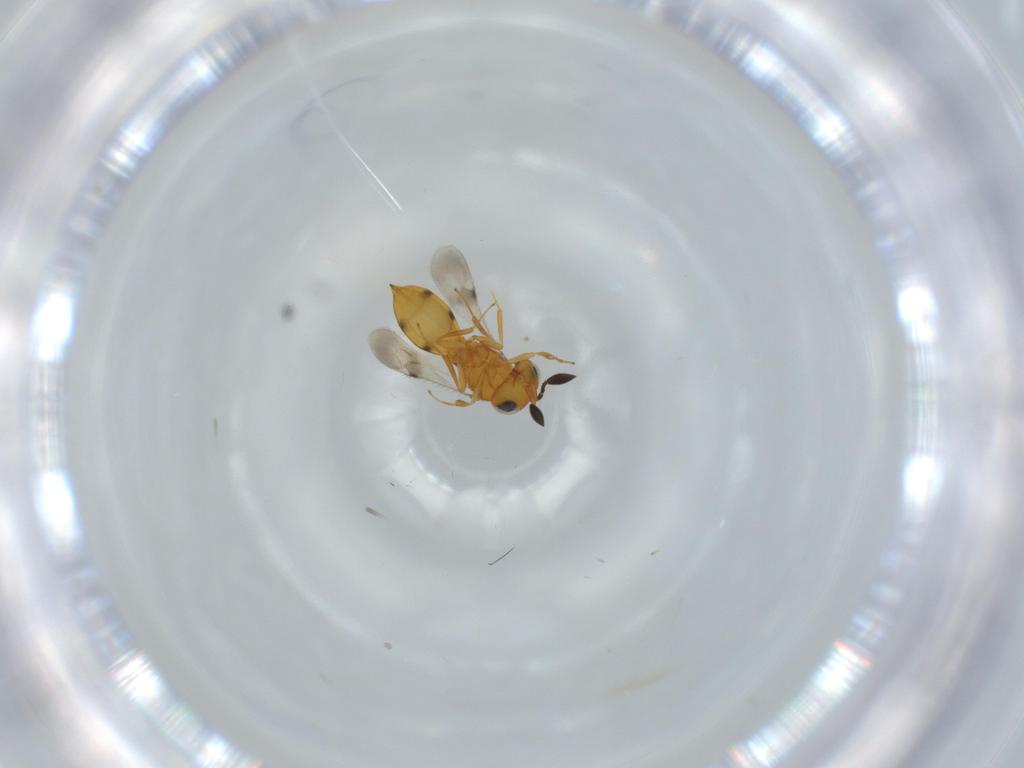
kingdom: Animalia
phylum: Arthropoda
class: Insecta
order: Hymenoptera
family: Scelionidae
